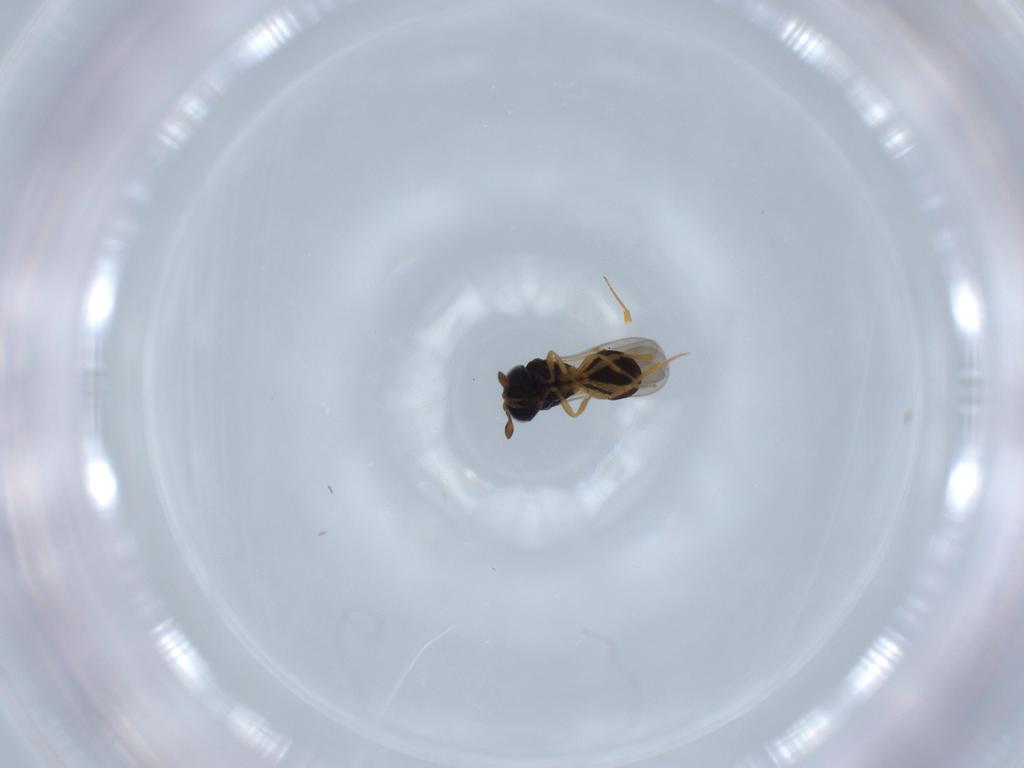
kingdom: Animalia
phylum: Arthropoda
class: Insecta
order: Hymenoptera
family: Scelionidae
